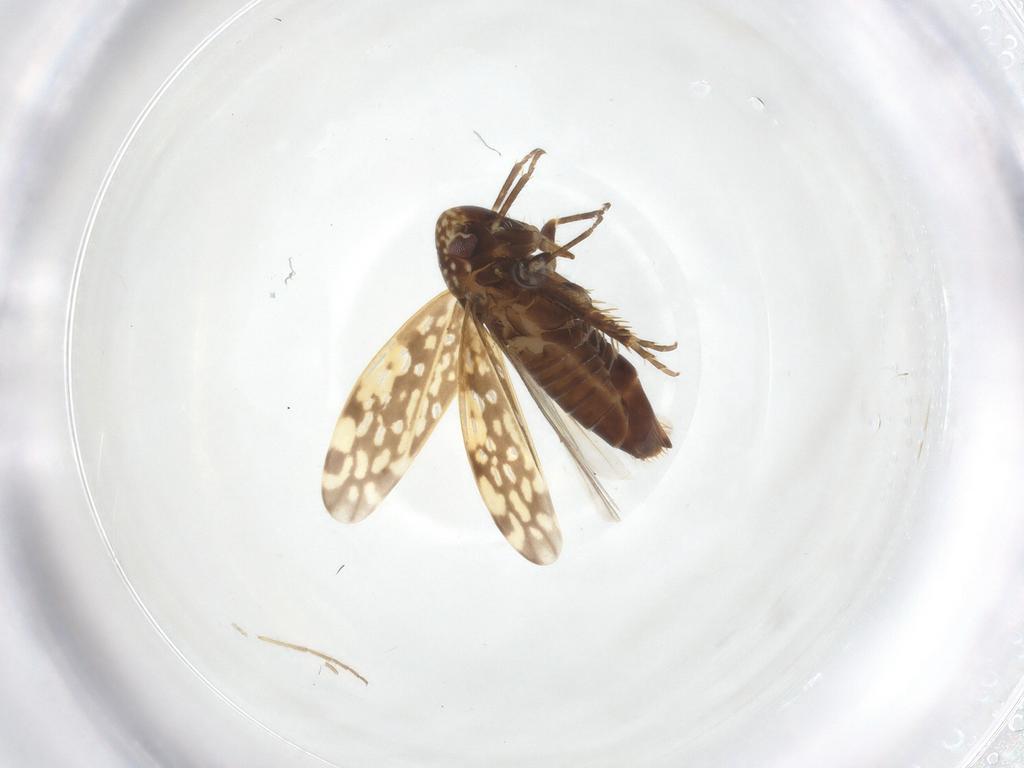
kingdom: Animalia
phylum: Arthropoda
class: Insecta
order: Hemiptera
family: Cicadellidae
